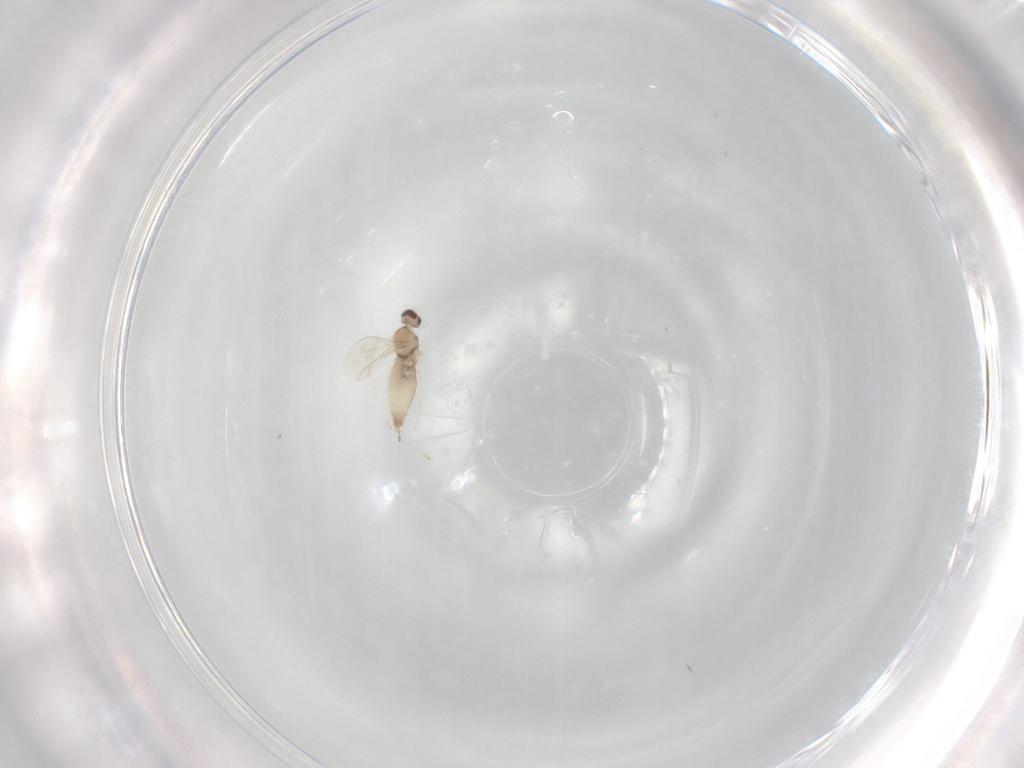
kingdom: Animalia
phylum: Arthropoda
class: Insecta
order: Diptera
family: Cecidomyiidae
